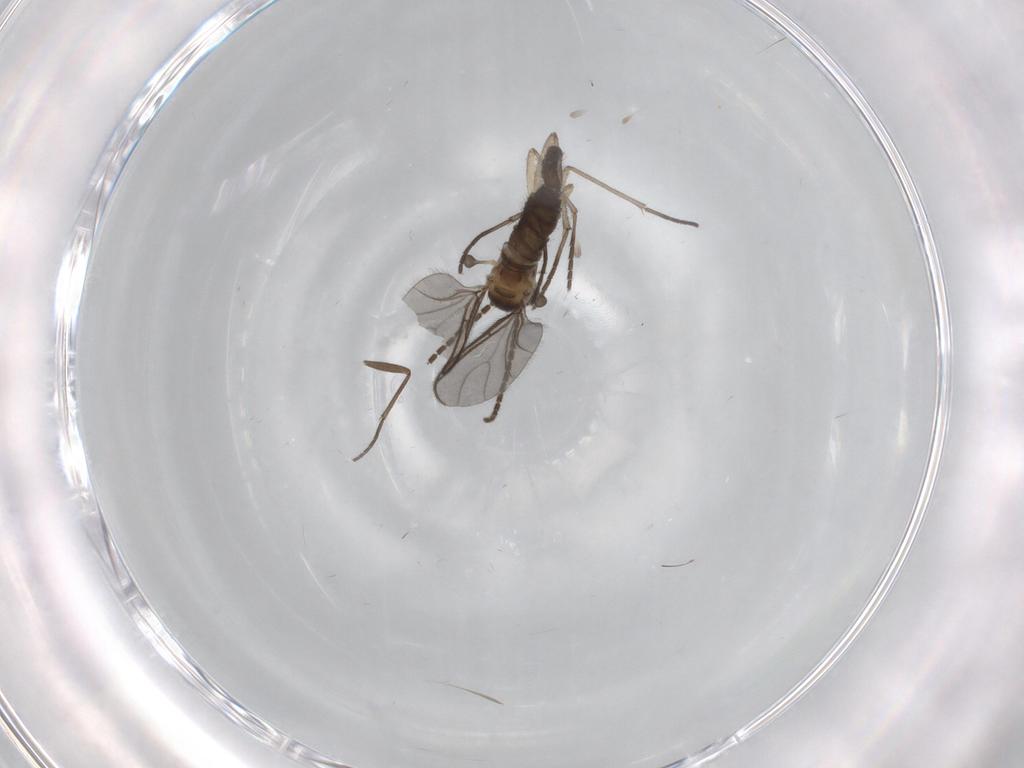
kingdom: Animalia
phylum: Arthropoda
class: Insecta
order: Diptera
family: Sciaridae
